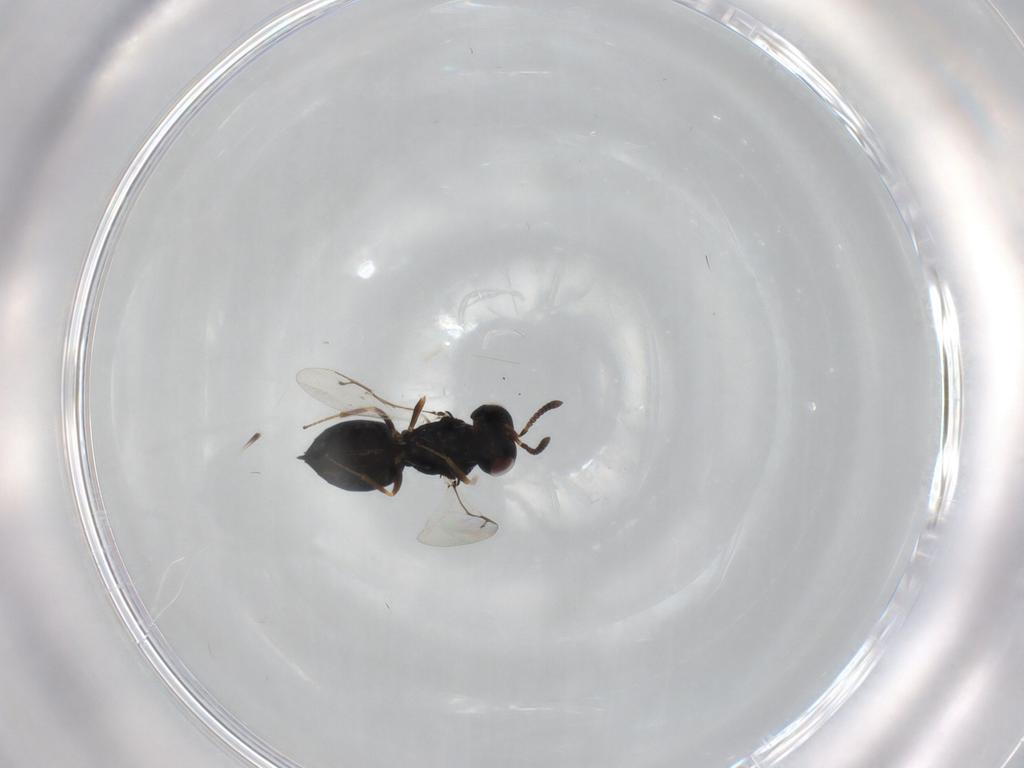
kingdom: Animalia
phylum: Arthropoda
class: Insecta
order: Hymenoptera
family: Pteromalidae
